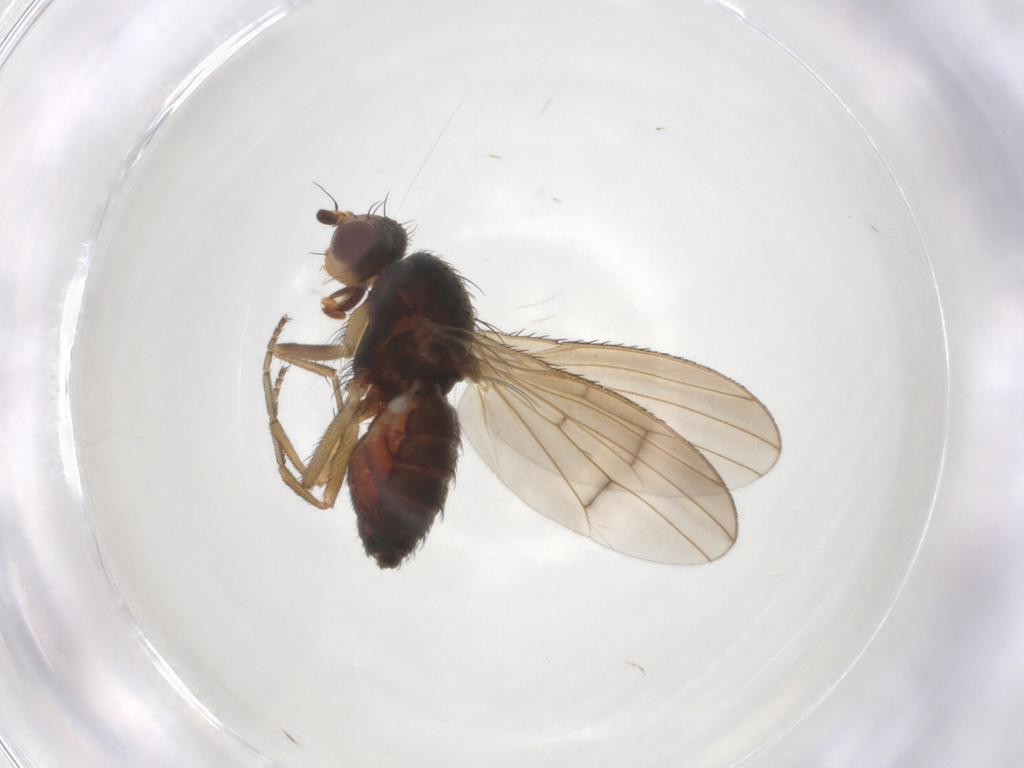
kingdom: Animalia
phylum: Arthropoda
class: Insecta
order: Diptera
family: Heleomyzidae
